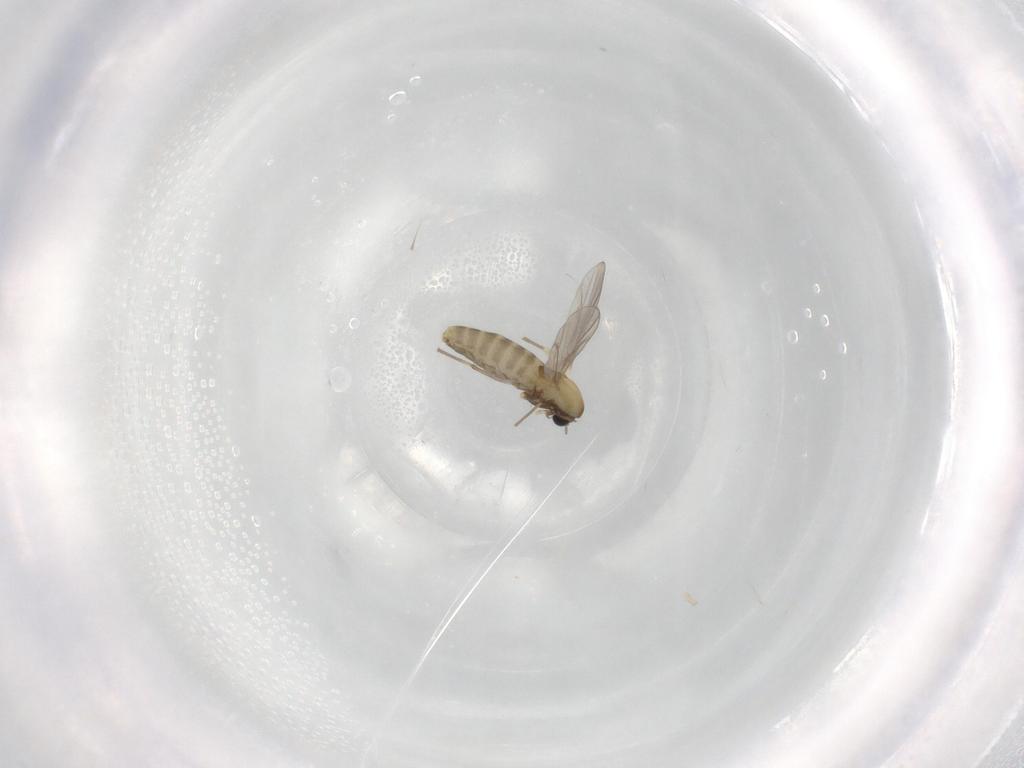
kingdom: Animalia
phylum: Arthropoda
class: Insecta
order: Diptera
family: Chironomidae
